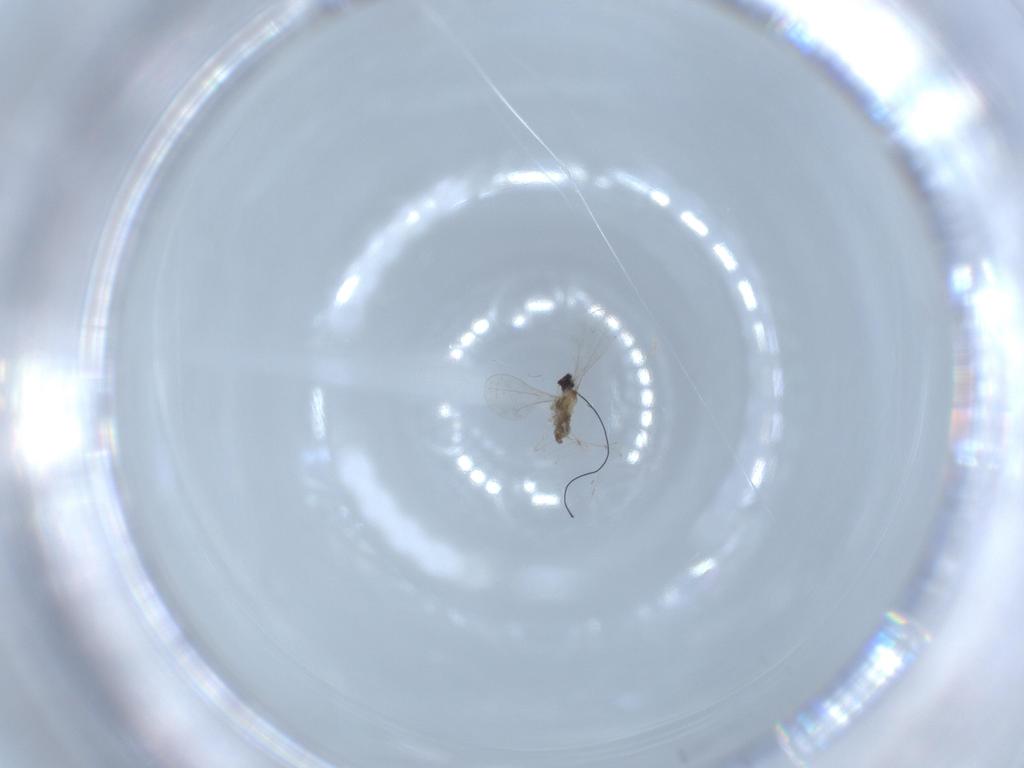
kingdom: Animalia
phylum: Arthropoda
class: Insecta
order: Diptera
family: Cecidomyiidae
